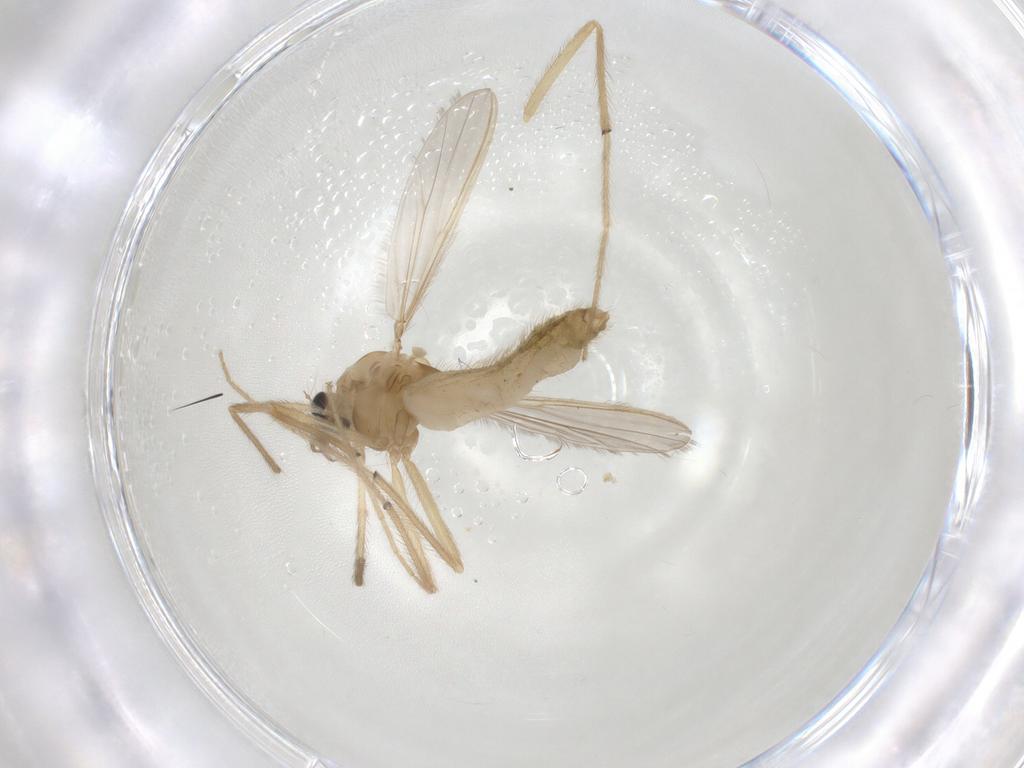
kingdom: Animalia
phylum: Arthropoda
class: Insecta
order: Diptera
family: Chironomidae
